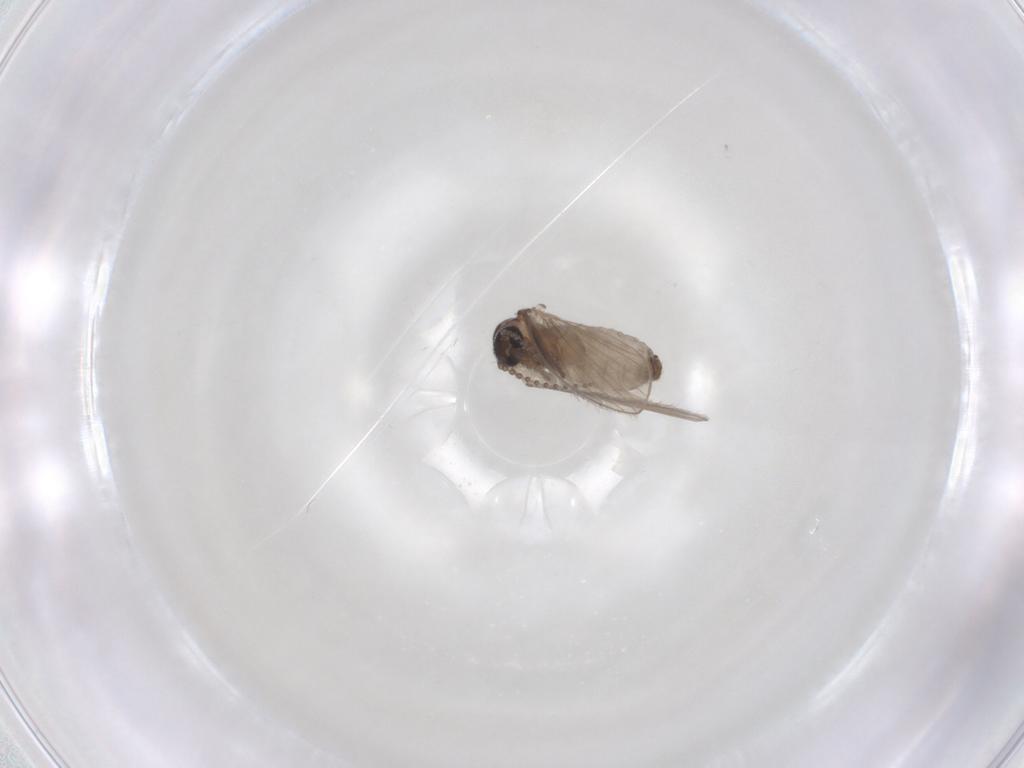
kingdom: Animalia
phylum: Arthropoda
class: Insecta
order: Diptera
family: Psychodidae
